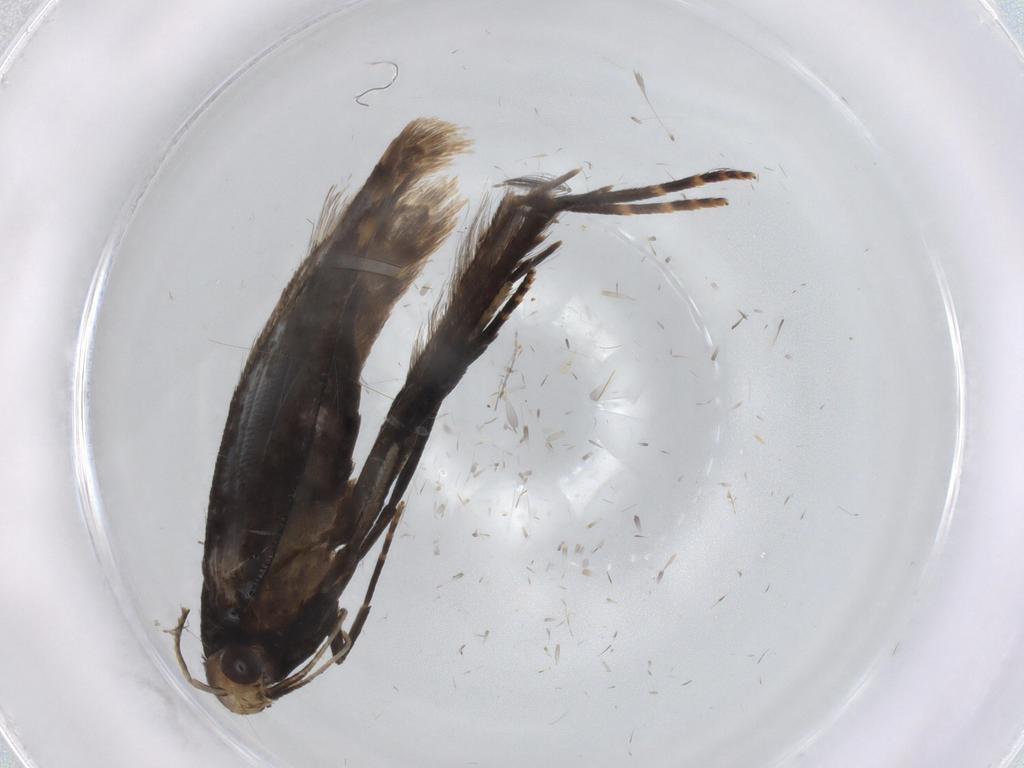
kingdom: Animalia
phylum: Arthropoda
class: Insecta
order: Lepidoptera
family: Gelechiidae
